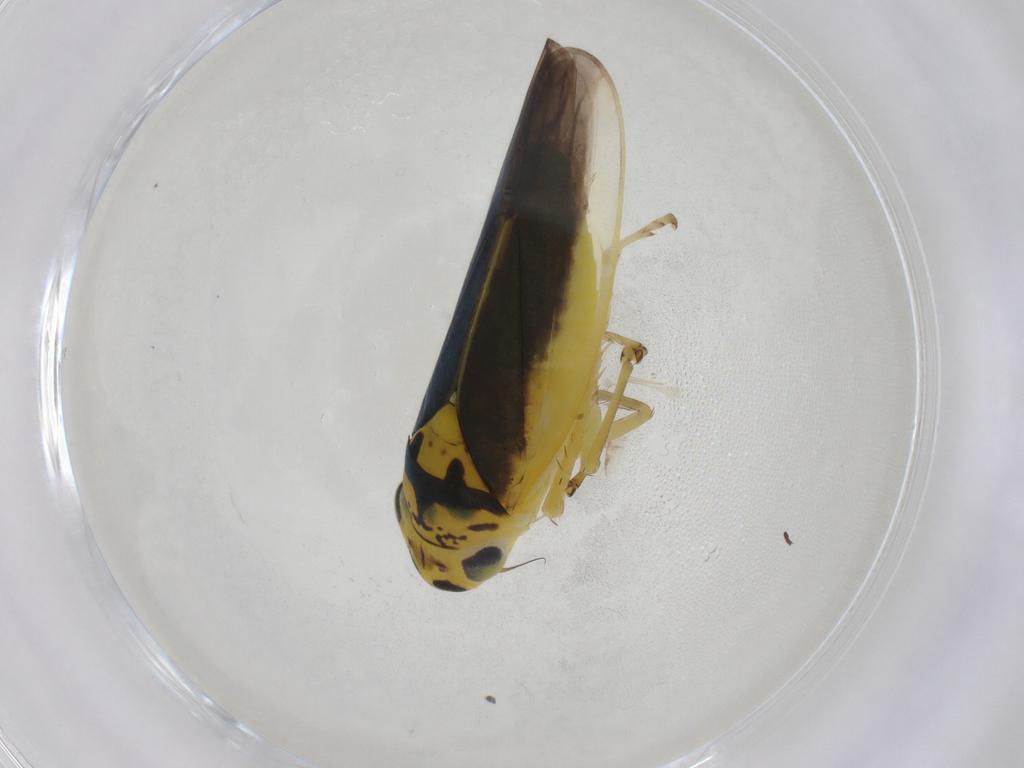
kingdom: Animalia
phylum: Arthropoda
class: Insecta
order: Hemiptera
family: Cicadellidae
